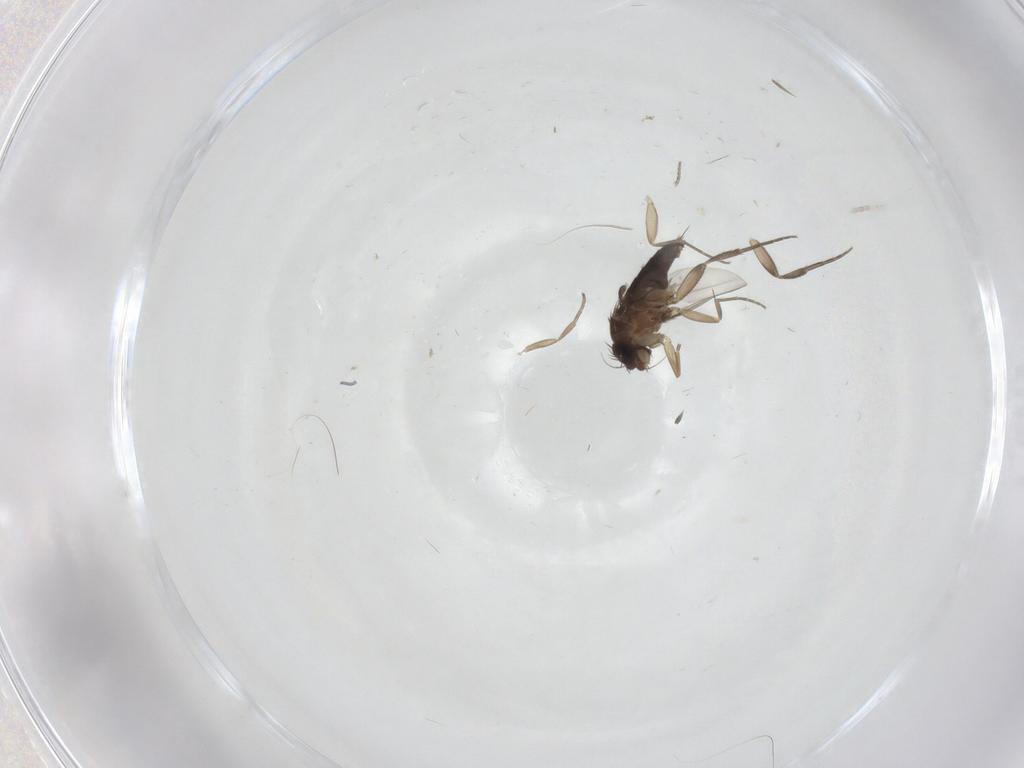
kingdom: Animalia
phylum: Arthropoda
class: Insecta
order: Diptera
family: Phoridae
